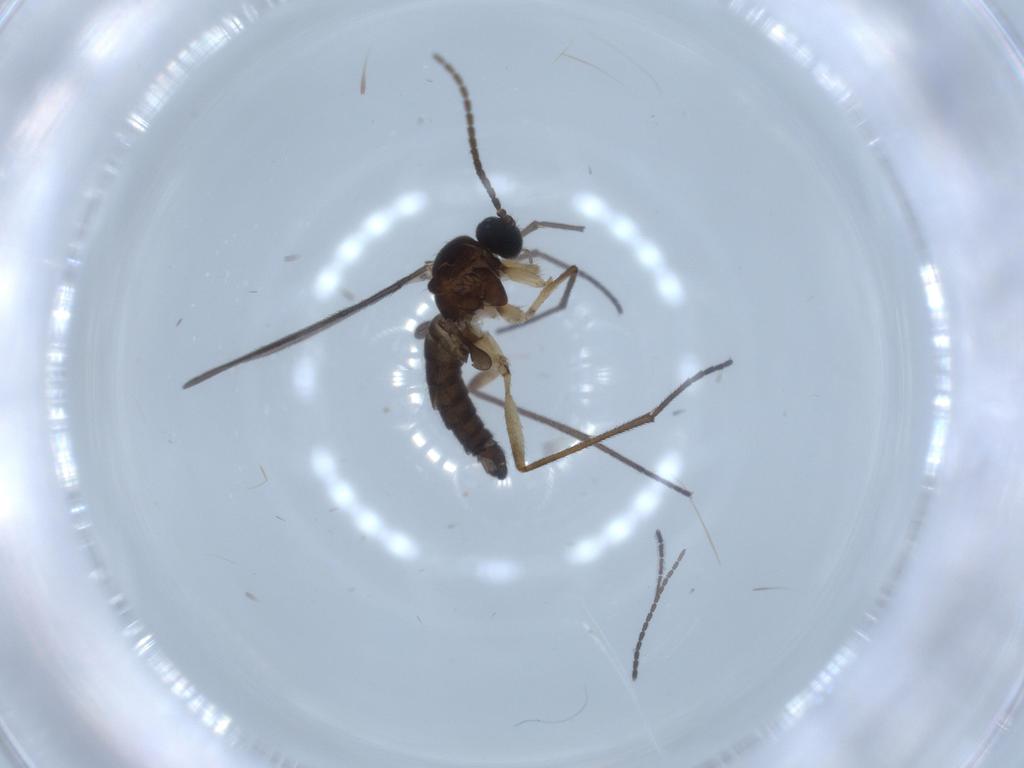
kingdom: Animalia
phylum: Arthropoda
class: Insecta
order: Diptera
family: Sciaridae
